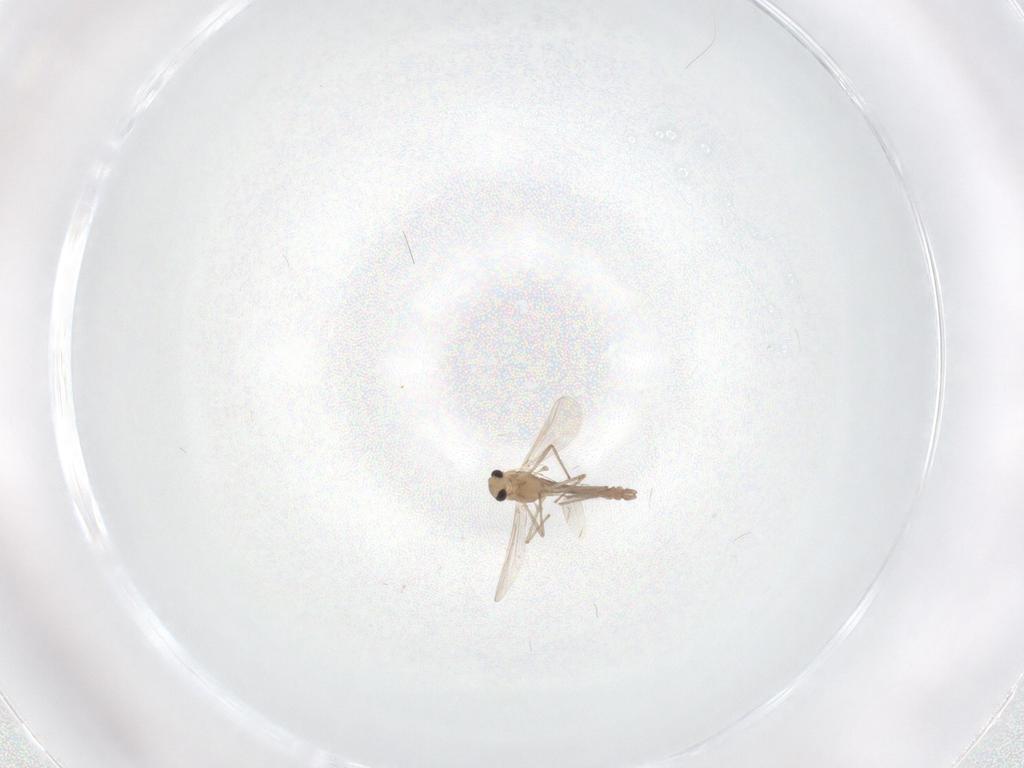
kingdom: Animalia
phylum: Arthropoda
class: Insecta
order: Diptera
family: Chironomidae
